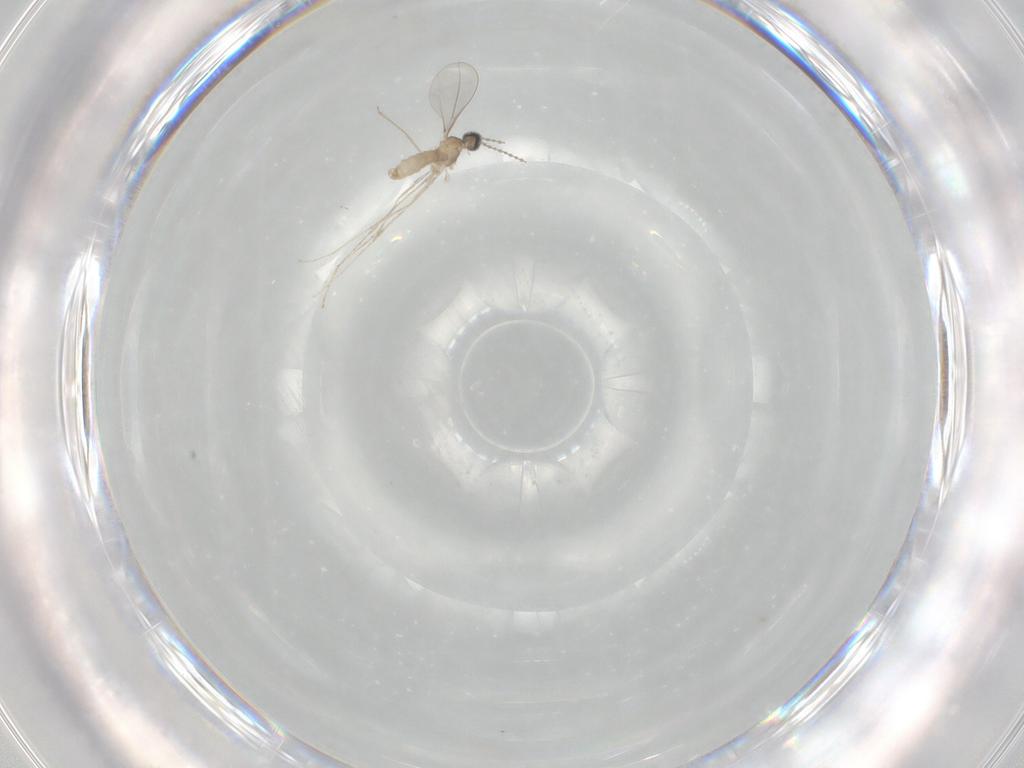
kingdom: Animalia
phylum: Arthropoda
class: Insecta
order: Diptera
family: Cecidomyiidae
